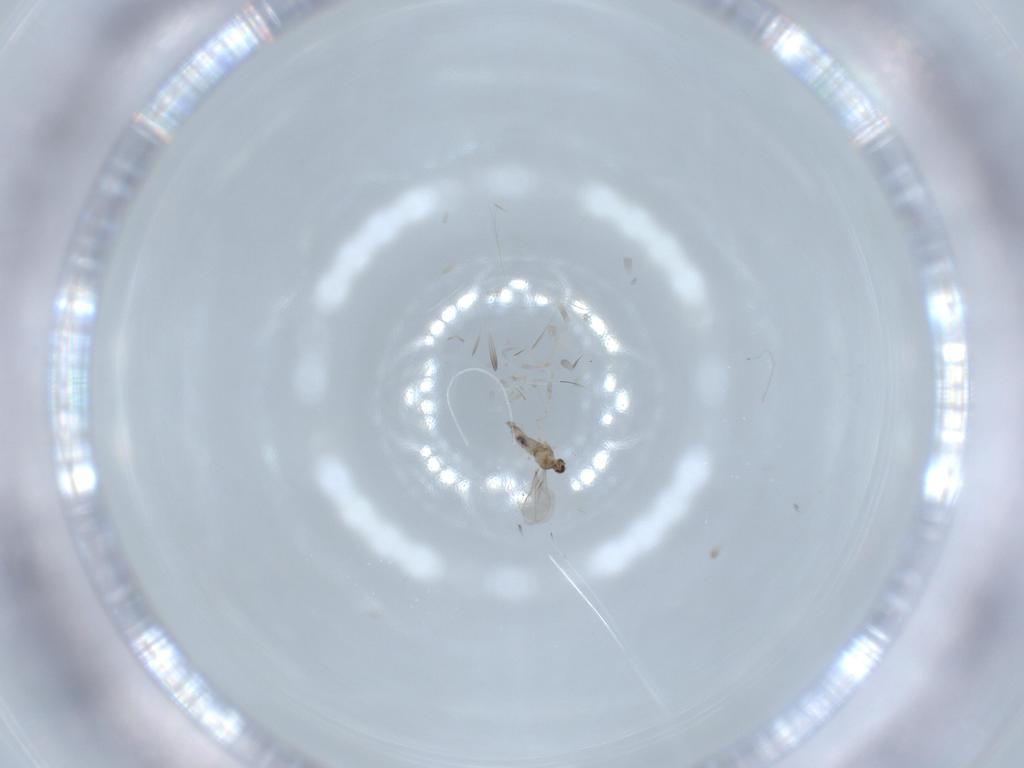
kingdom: Animalia
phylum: Arthropoda
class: Insecta
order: Diptera
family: Cecidomyiidae
